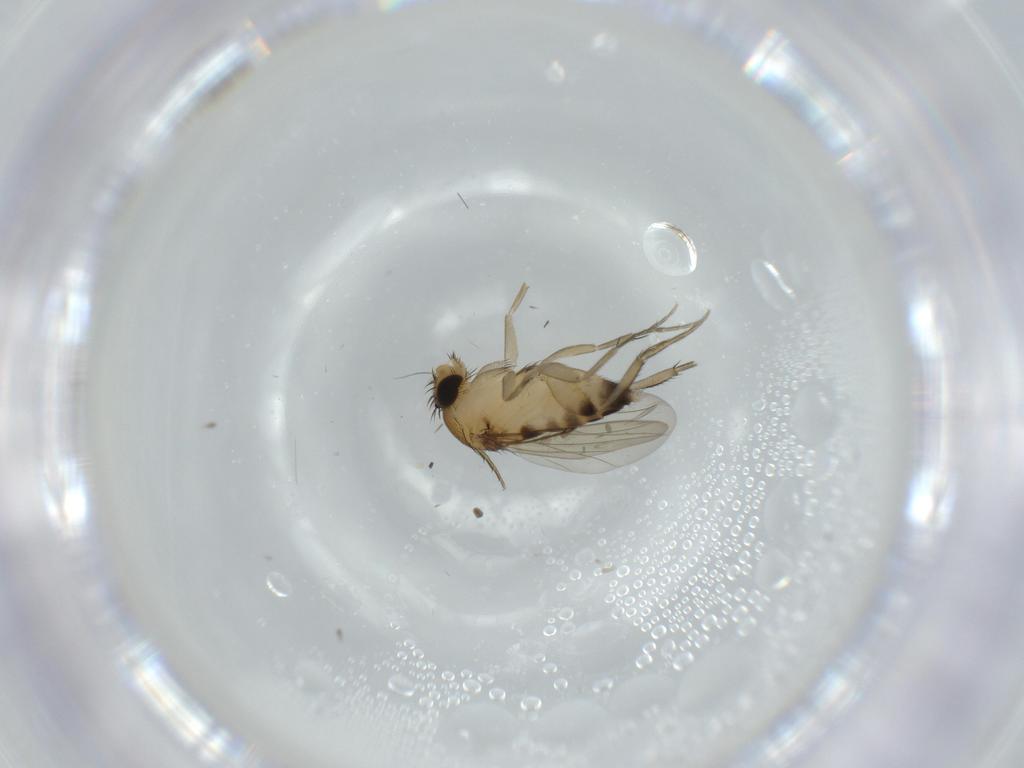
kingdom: Animalia
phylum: Arthropoda
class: Insecta
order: Diptera
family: Phoridae
